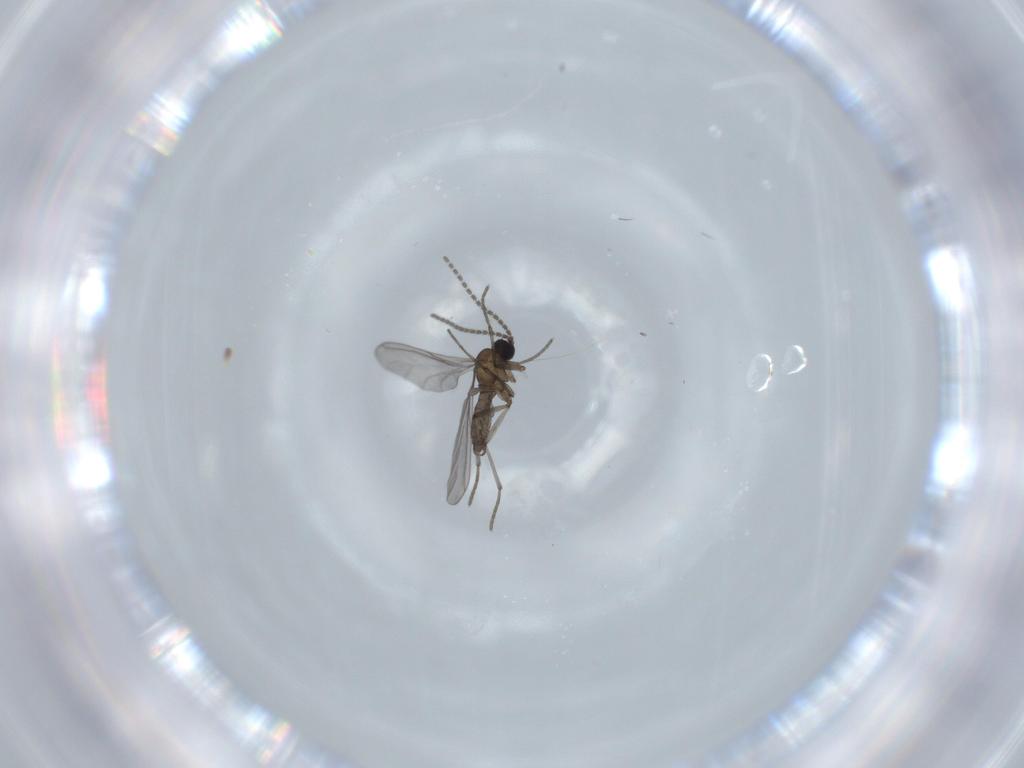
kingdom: Animalia
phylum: Arthropoda
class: Insecta
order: Diptera
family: Sciaridae
